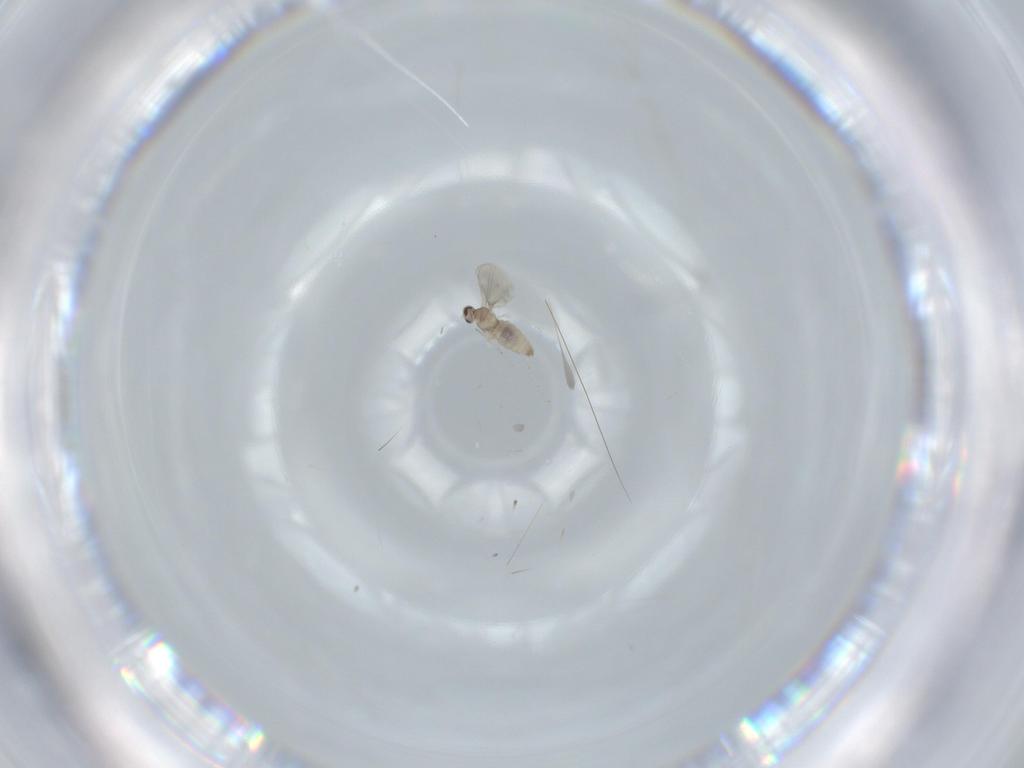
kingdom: Animalia
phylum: Arthropoda
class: Insecta
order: Diptera
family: Cecidomyiidae
